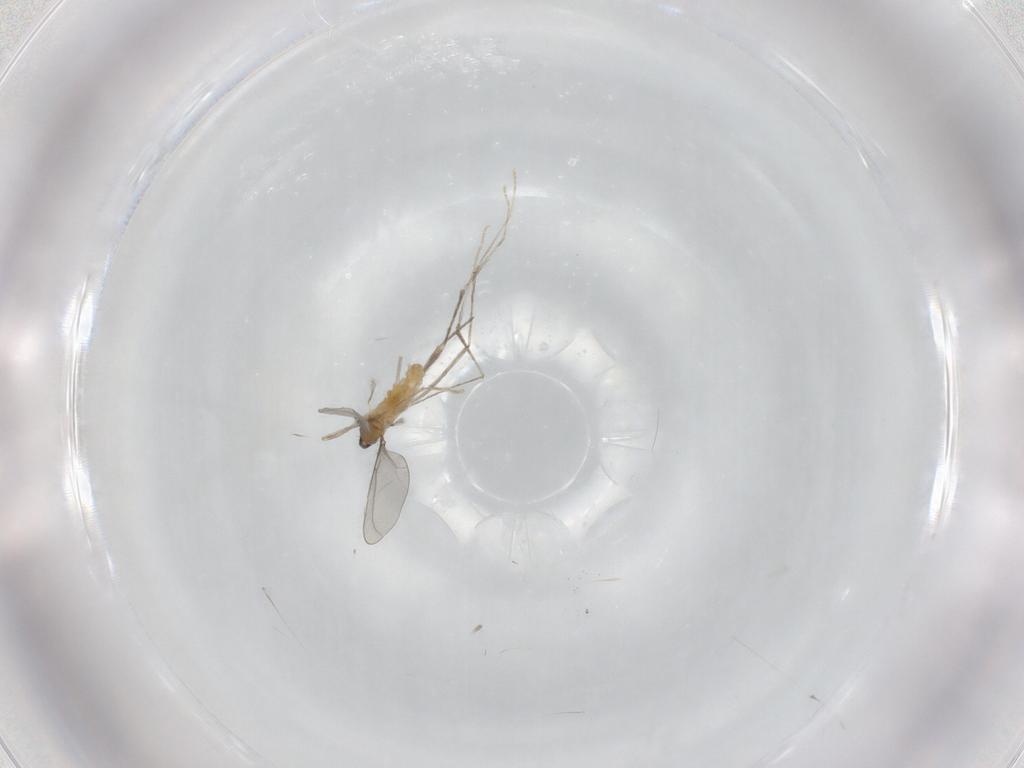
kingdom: Animalia
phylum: Arthropoda
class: Insecta
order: Diptera
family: Cecidomyiidae
